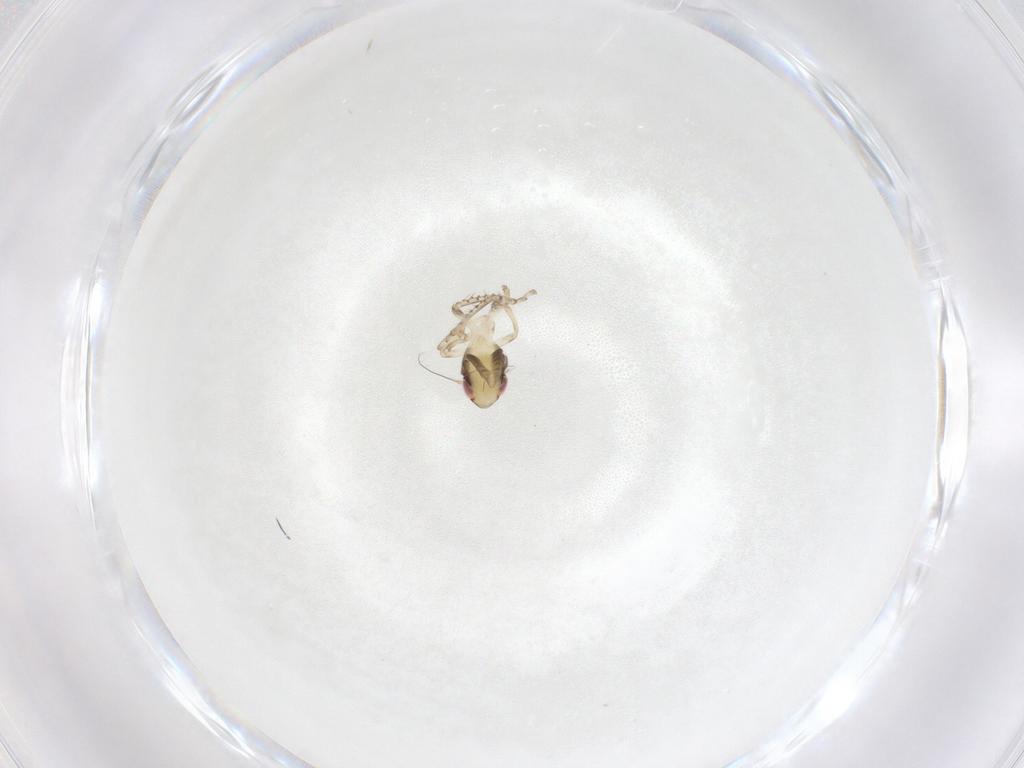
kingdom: Animalia
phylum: Arthropoda
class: Insecta
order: Hemiptera
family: Cicadellidae
